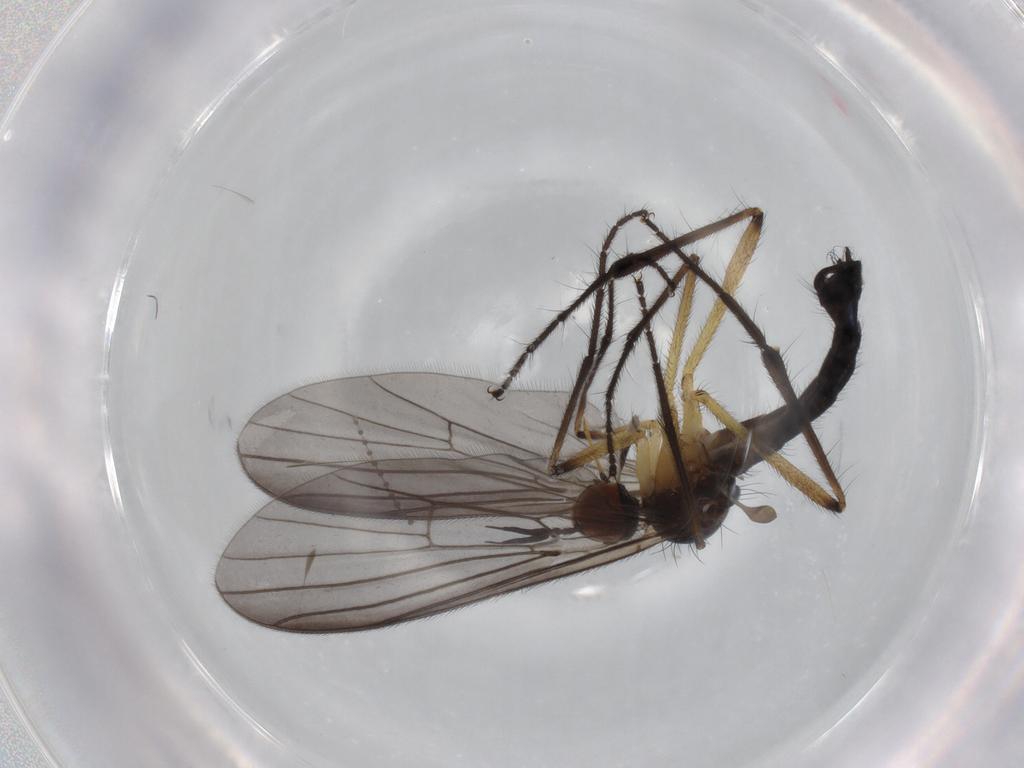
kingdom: Animalia
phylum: Arthropoda
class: Insecta
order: Diptera
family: Empididae
